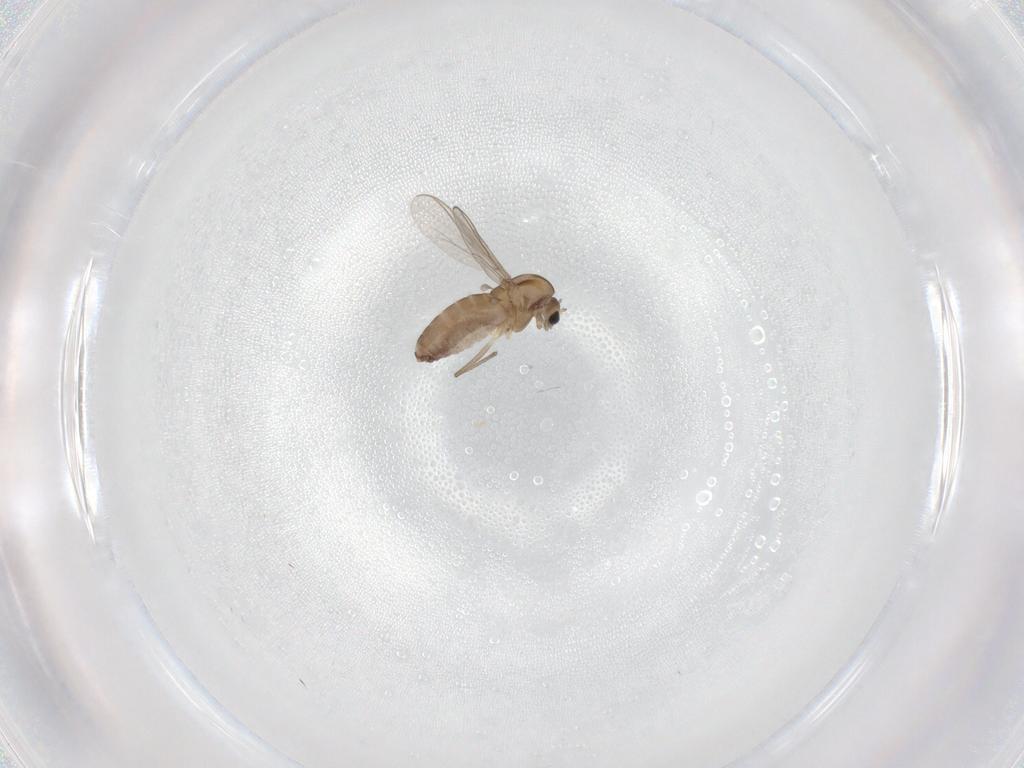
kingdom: Animalia
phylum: Arthropoda
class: Insecta
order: Diptera
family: Chironomidae
